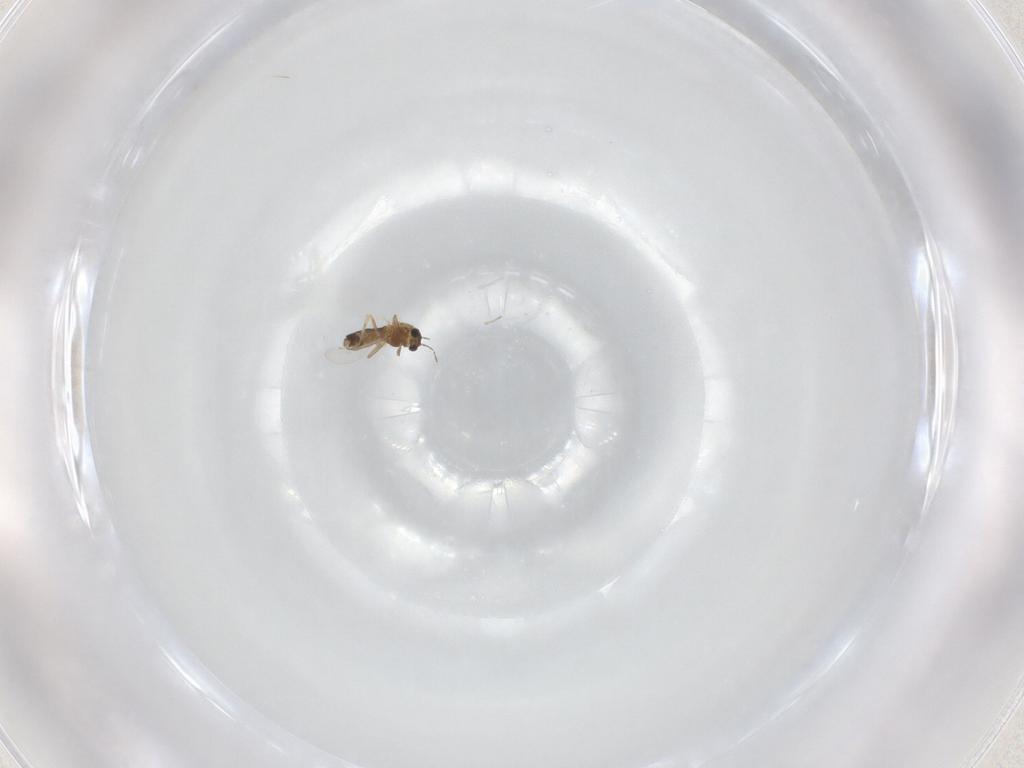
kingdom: Animalia
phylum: Arthropoda
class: Insecta
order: Diptera
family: Chironomidae
